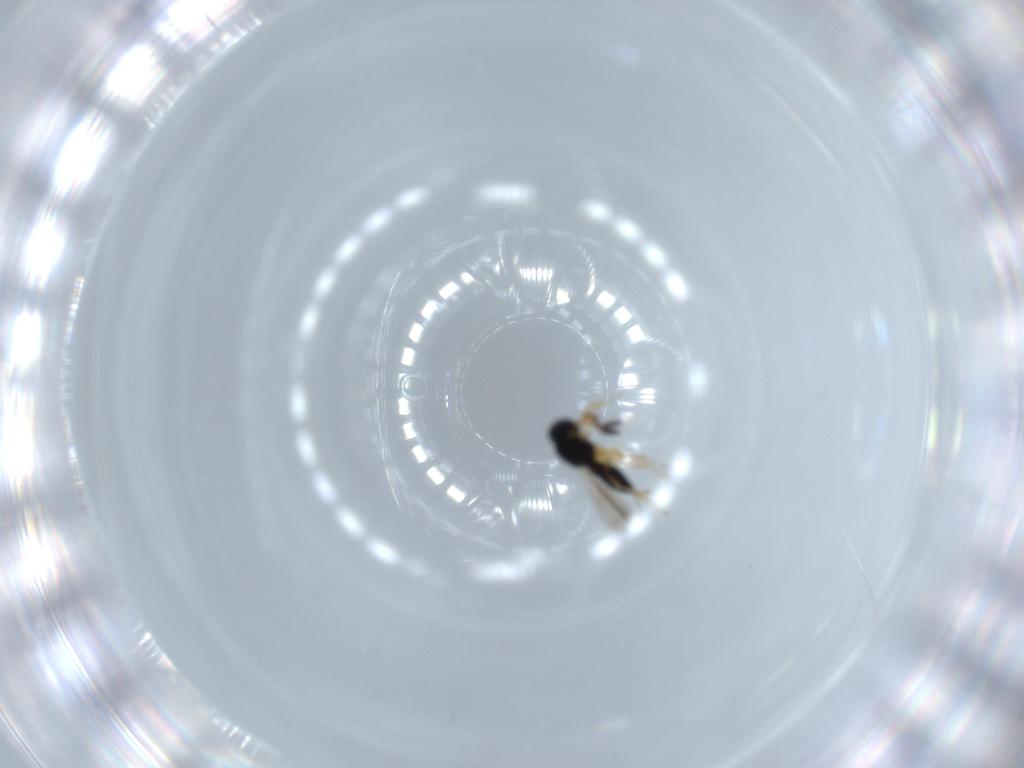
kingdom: Animalia
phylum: Arthropoda
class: Insecta
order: Hymenoptera
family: Scelionidae
